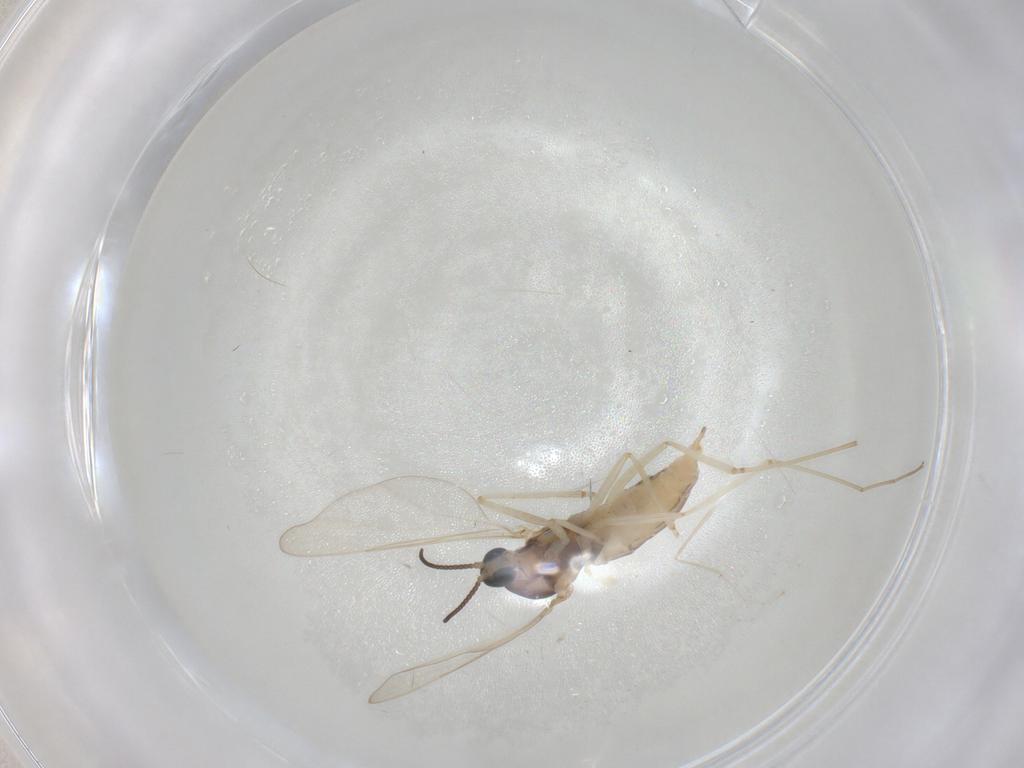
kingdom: Animalia
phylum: Arthropoda
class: Insecta
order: Diptera
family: Cecidomyiidae
